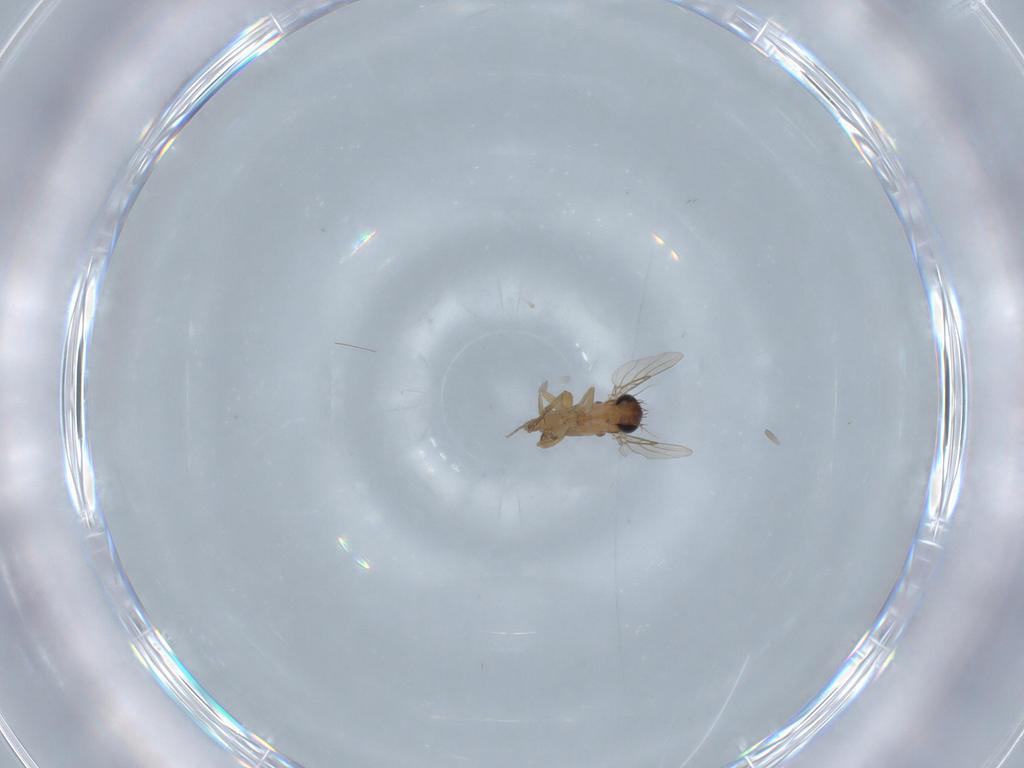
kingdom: Animalia
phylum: Arthropoda
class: Insecta
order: Diptera
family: Phoridae
